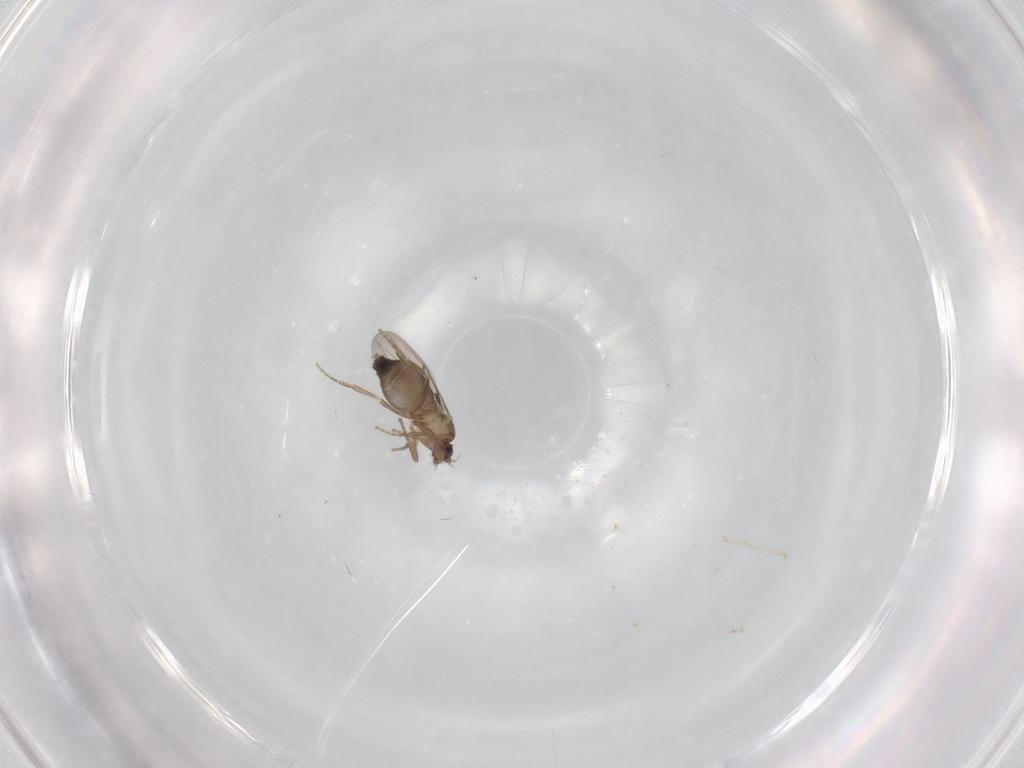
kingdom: Animalia
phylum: Arthropoda
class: Insecta
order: Diptera
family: Cecidomyiidae
